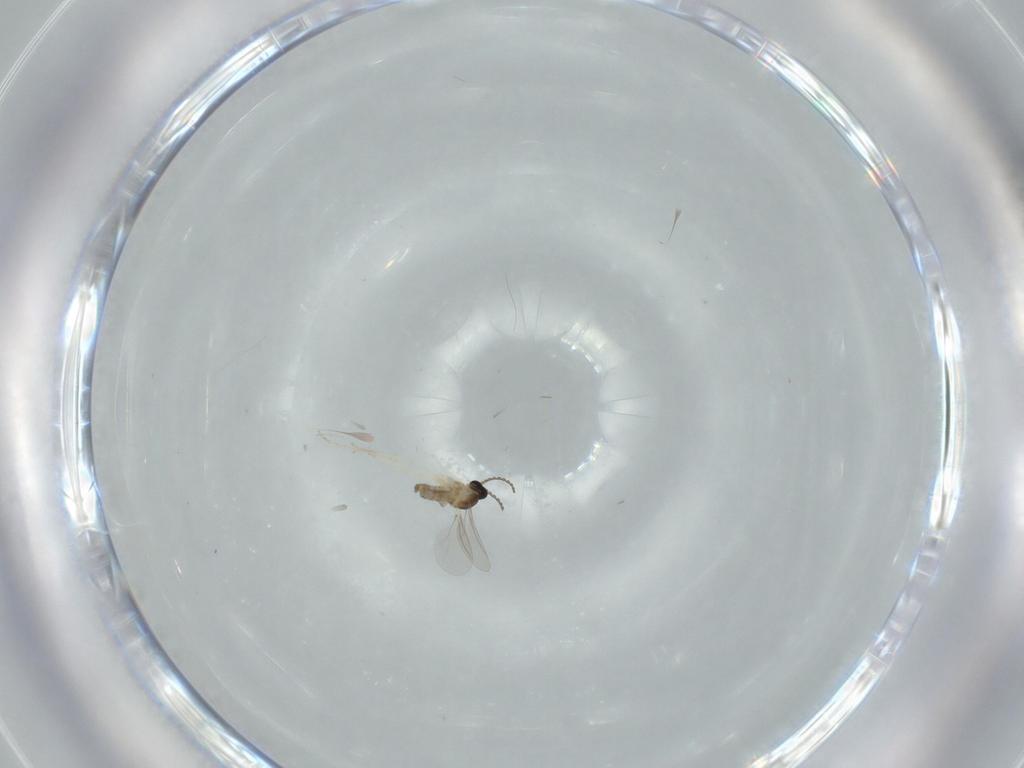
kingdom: Animalia
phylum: Arthropoda
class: Insecta
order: Diptera
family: Cecidomyiidae
